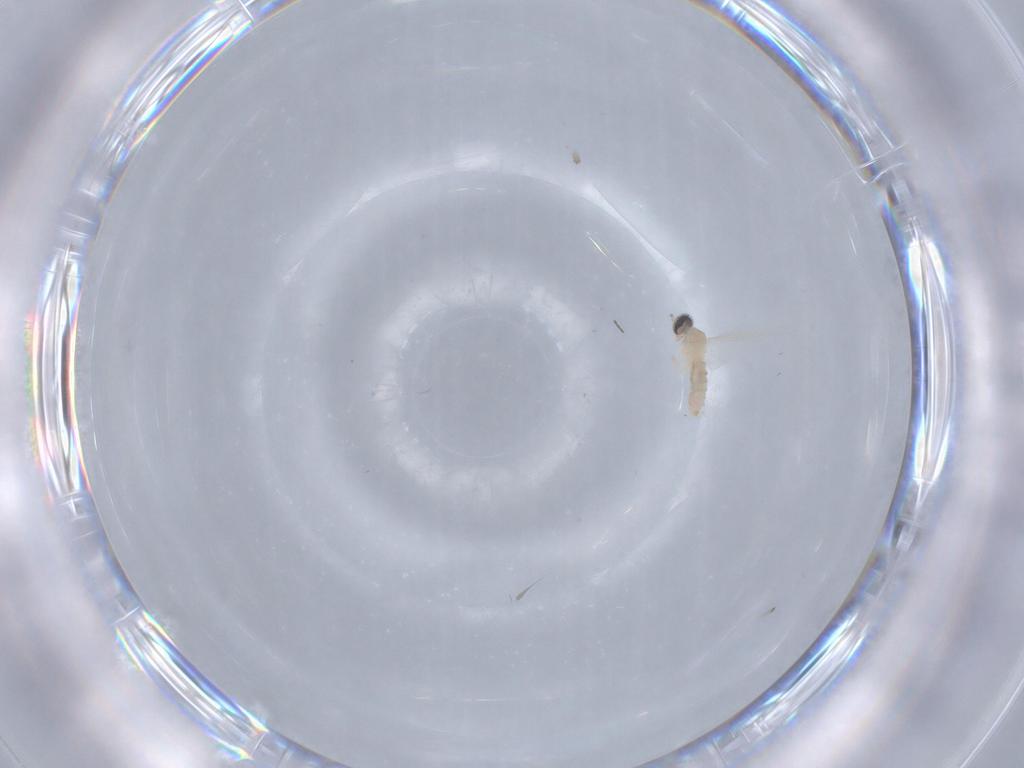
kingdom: Animalia
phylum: Arthropoda
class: Insecta
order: Diptera
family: Cecidomyiidae
